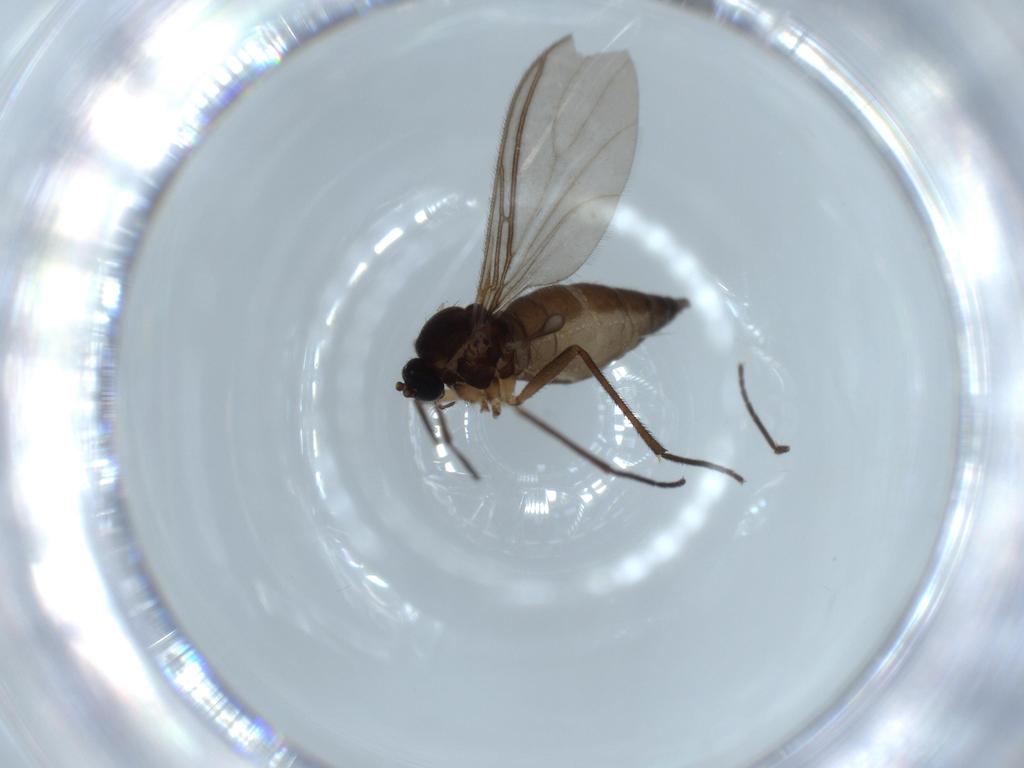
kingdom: Animalia
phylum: Arthropoda
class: Insecta
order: Diptera
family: Sciaridae
